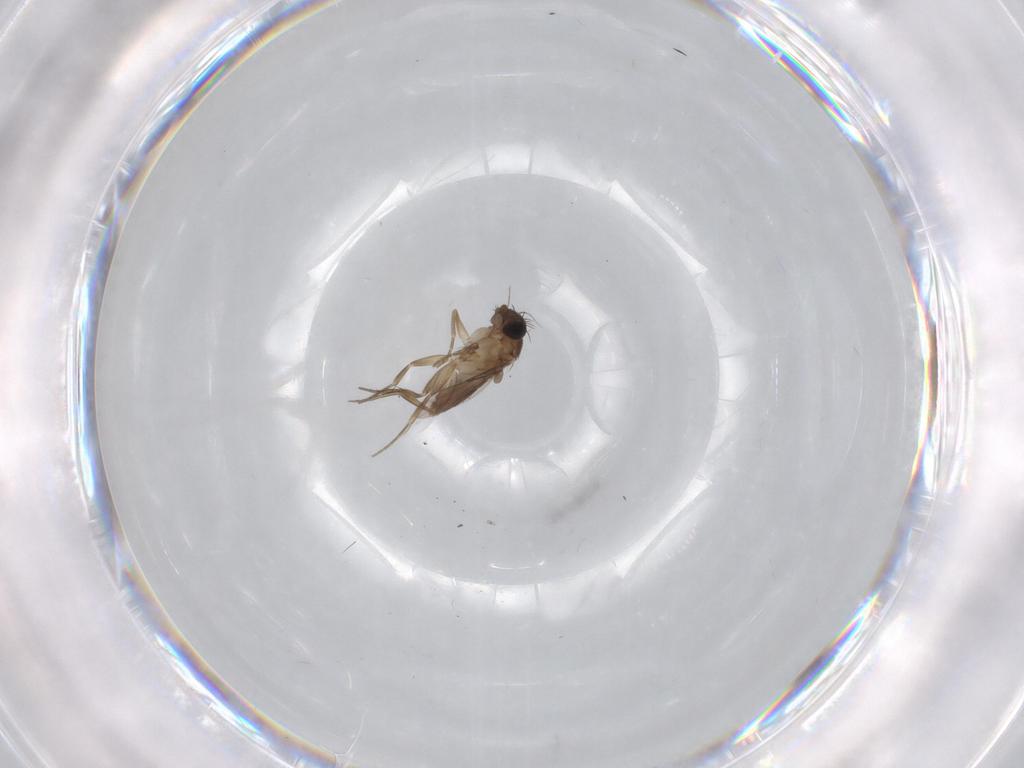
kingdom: Animalia
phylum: Arthropoda
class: Insecta
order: Diptera
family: Phoridae
